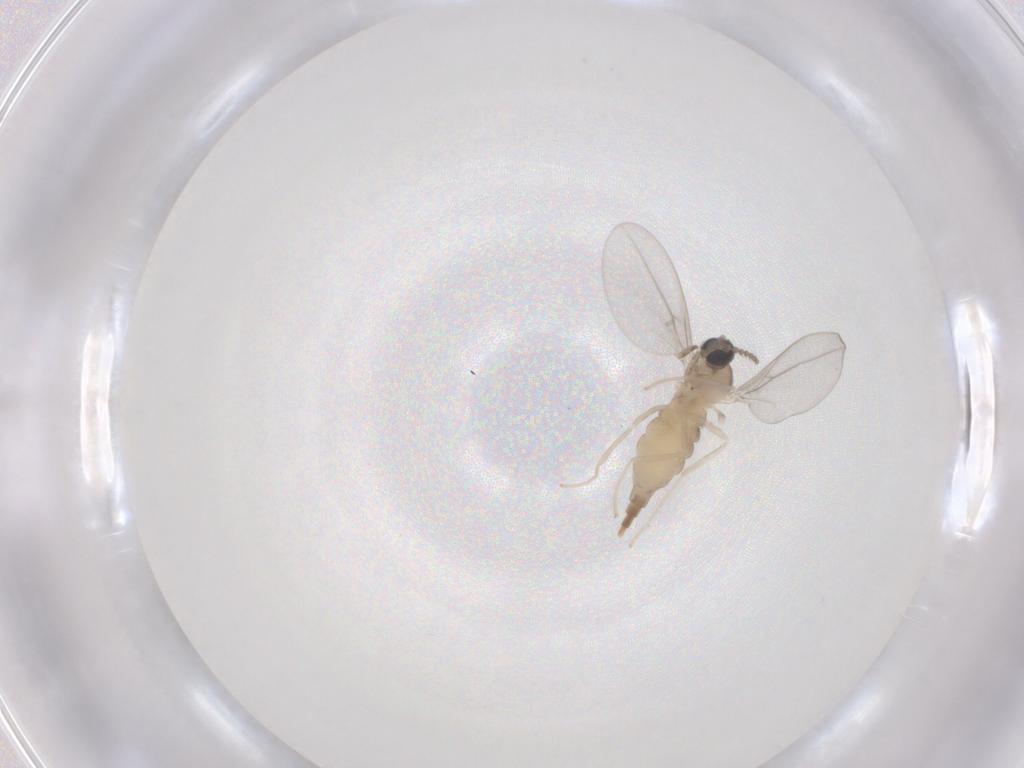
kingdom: Animalia
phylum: Arthropoda
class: Insecta
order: Diptera
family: Cecidomyiidae
